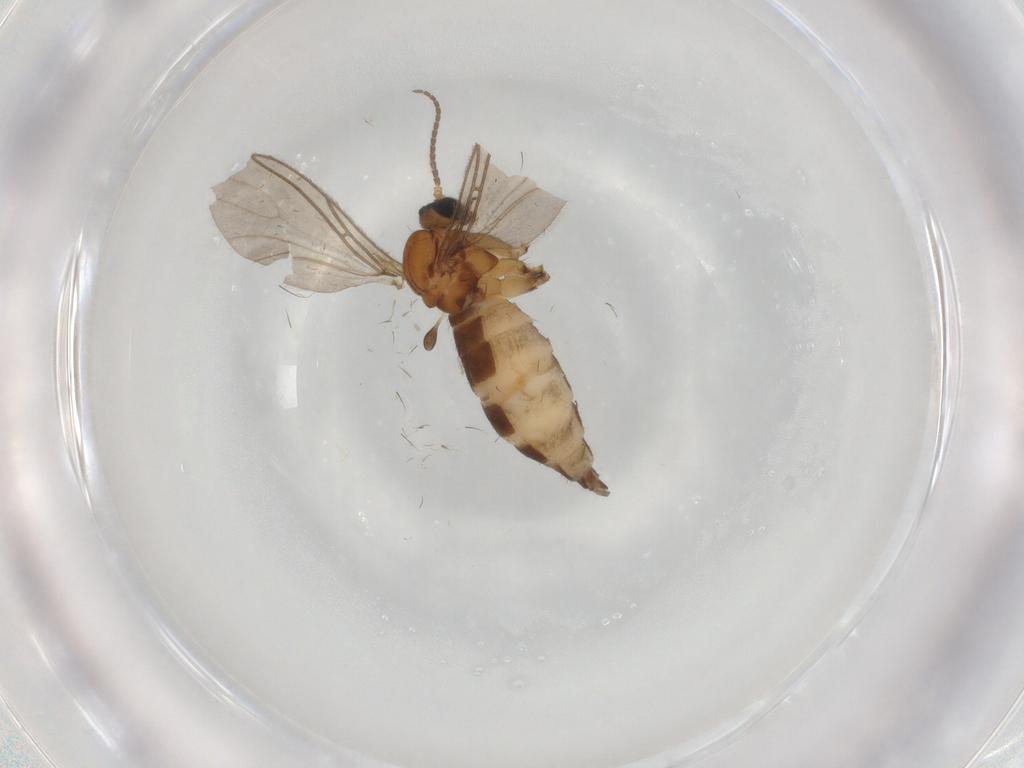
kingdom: Animalia
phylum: Arthropoda
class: Insecta
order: Diptera
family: Sciaridae
